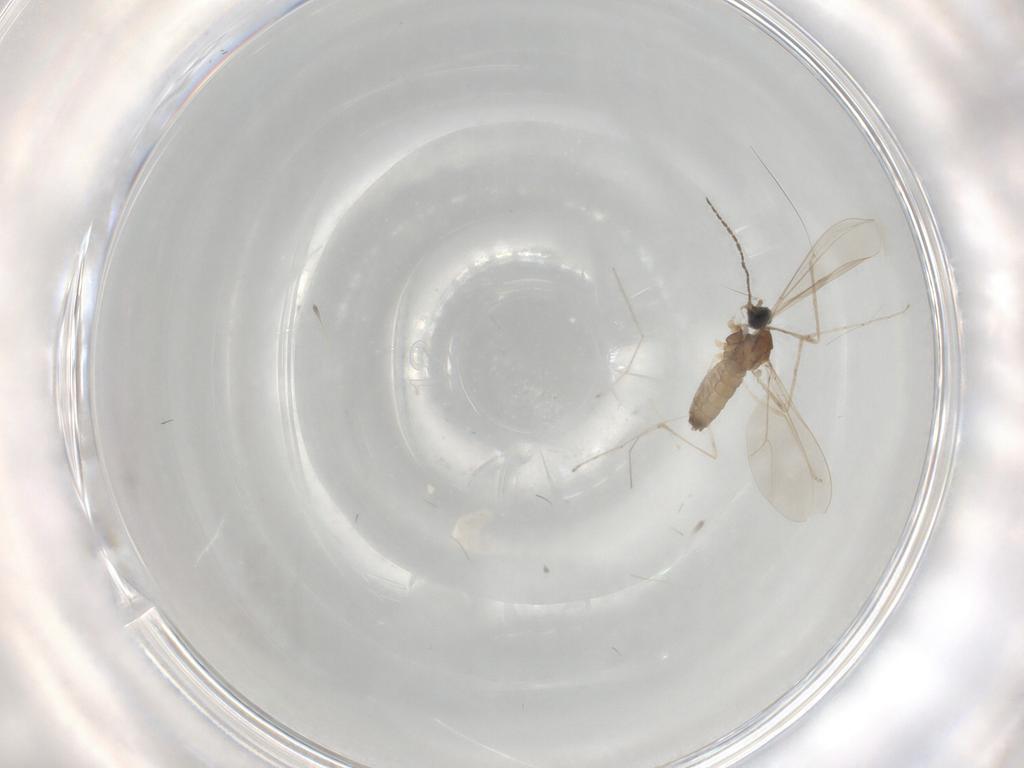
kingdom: Animalia
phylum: Arthropoda
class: Insecta
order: Diptera
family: Cecidomyiidae
